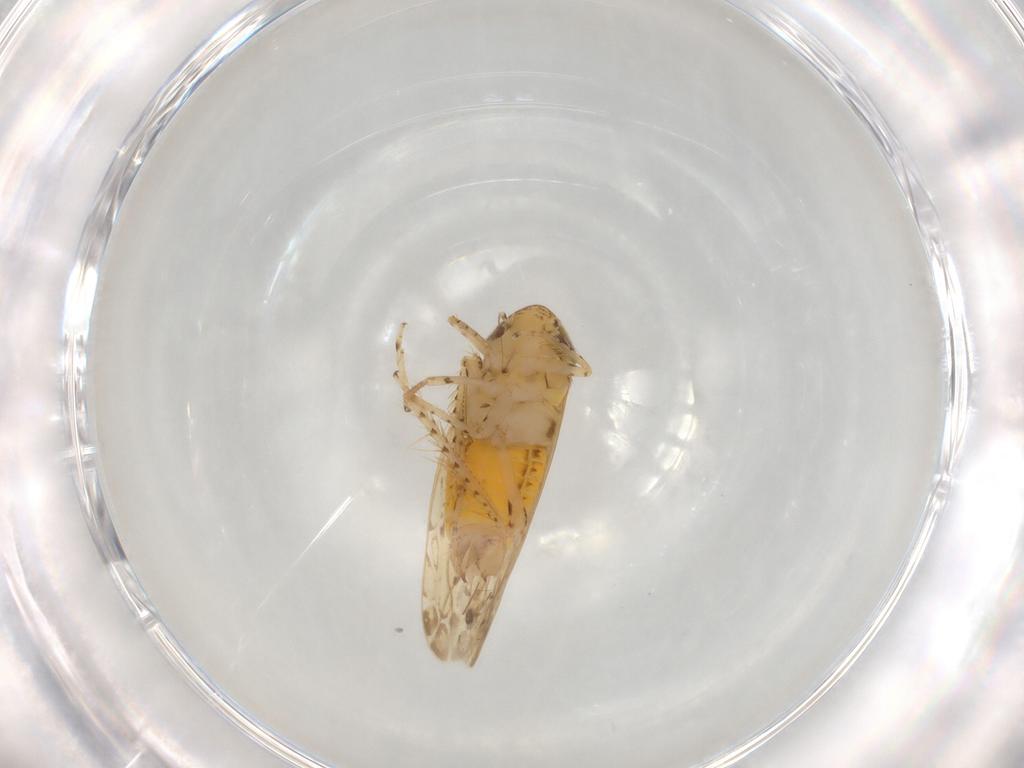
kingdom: Animalia
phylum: Arthropoda
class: Insecta
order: Hemiptera
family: Cicadellidae
